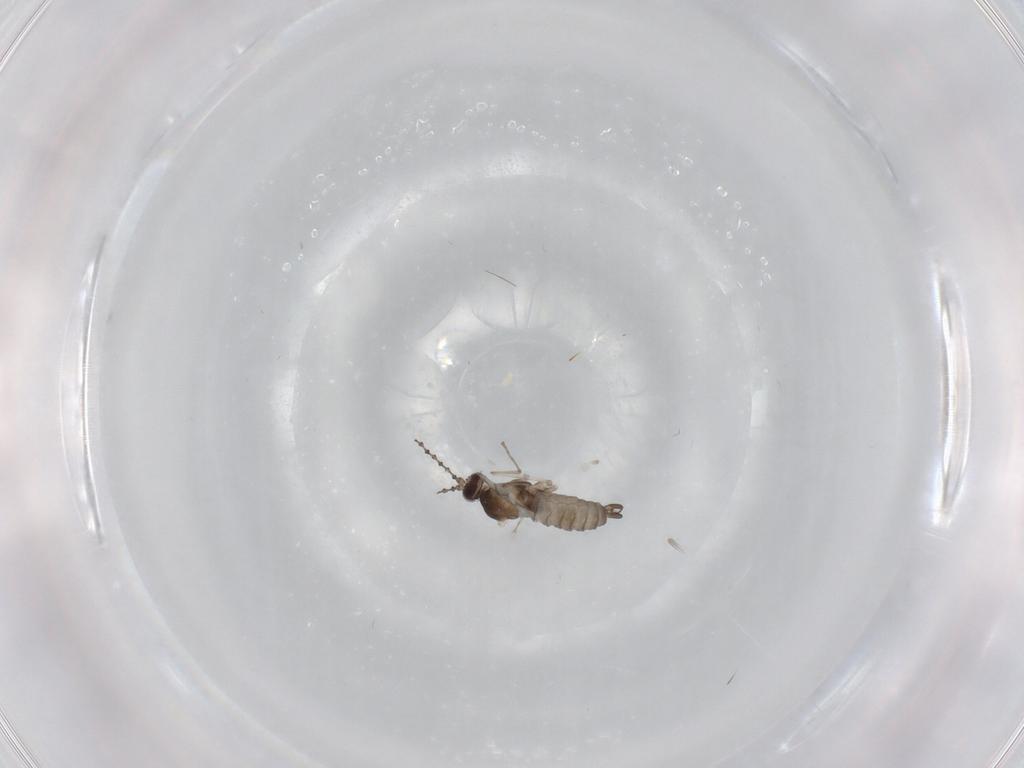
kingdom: Animalia
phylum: Arthropoda
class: Insecta
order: Diptera
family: Cecidomyiidae
